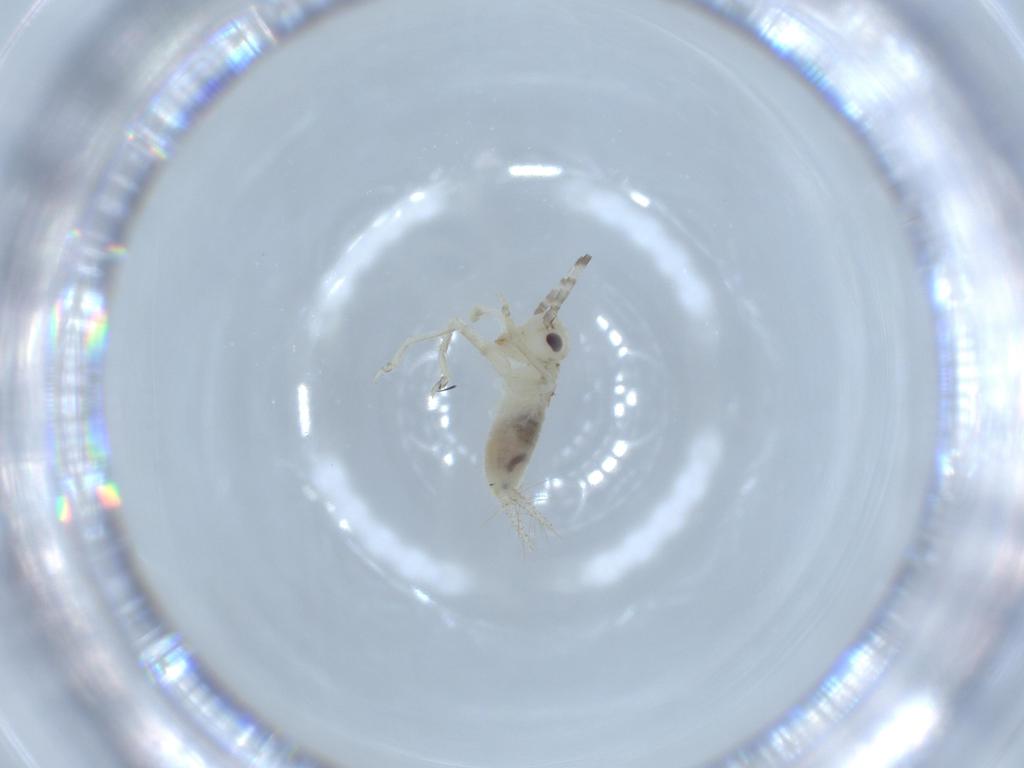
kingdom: Animalia
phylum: Arthropoda
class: Insecta
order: Orthoptera
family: Trigonidiidae
